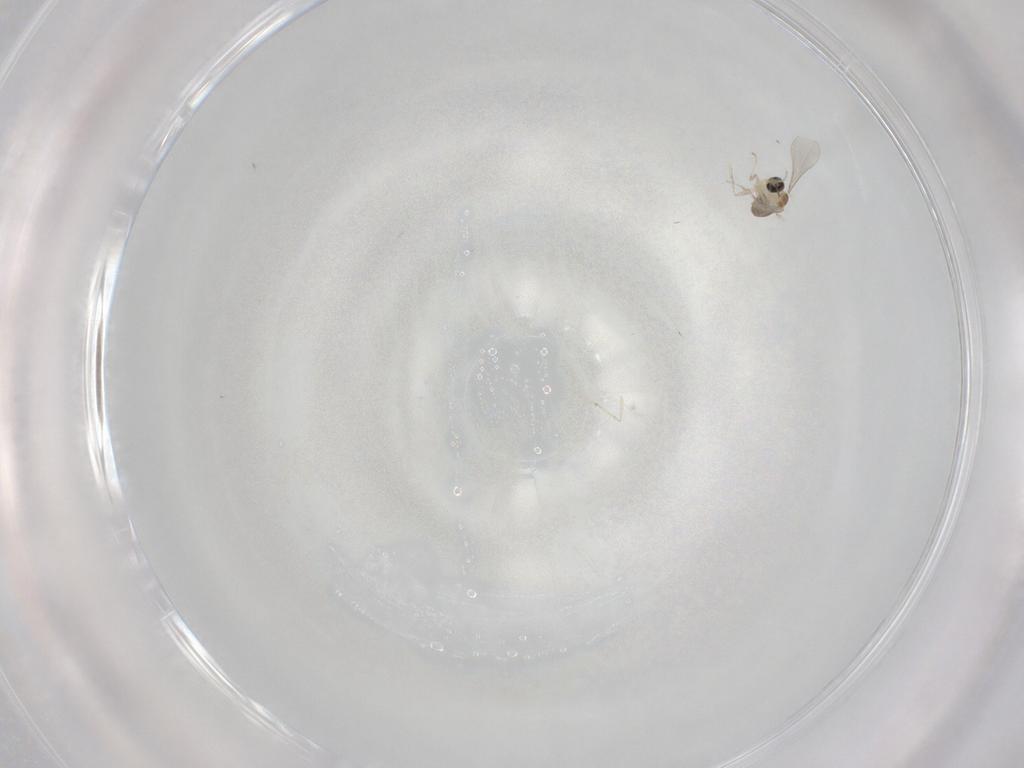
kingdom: Animalia
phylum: Arthropoda
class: Insecta
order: Diptera
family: Cecidomyiidae
